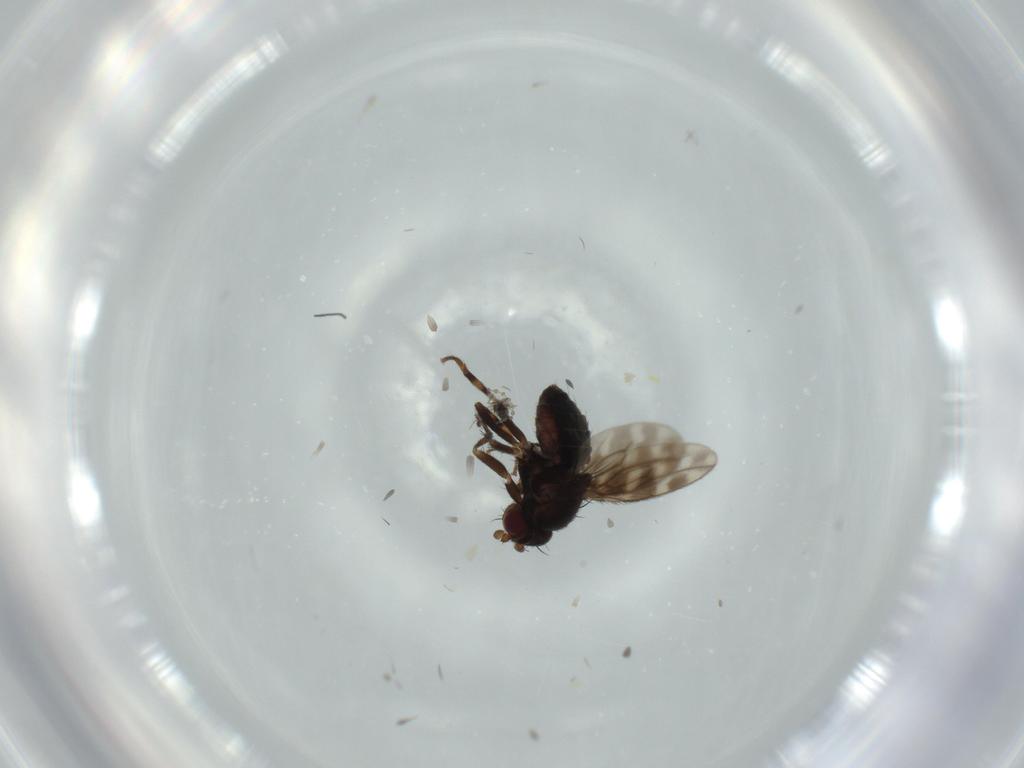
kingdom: Animalia
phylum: Arthropoda
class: Insecta
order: Diptera
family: Sphaeroceridae
